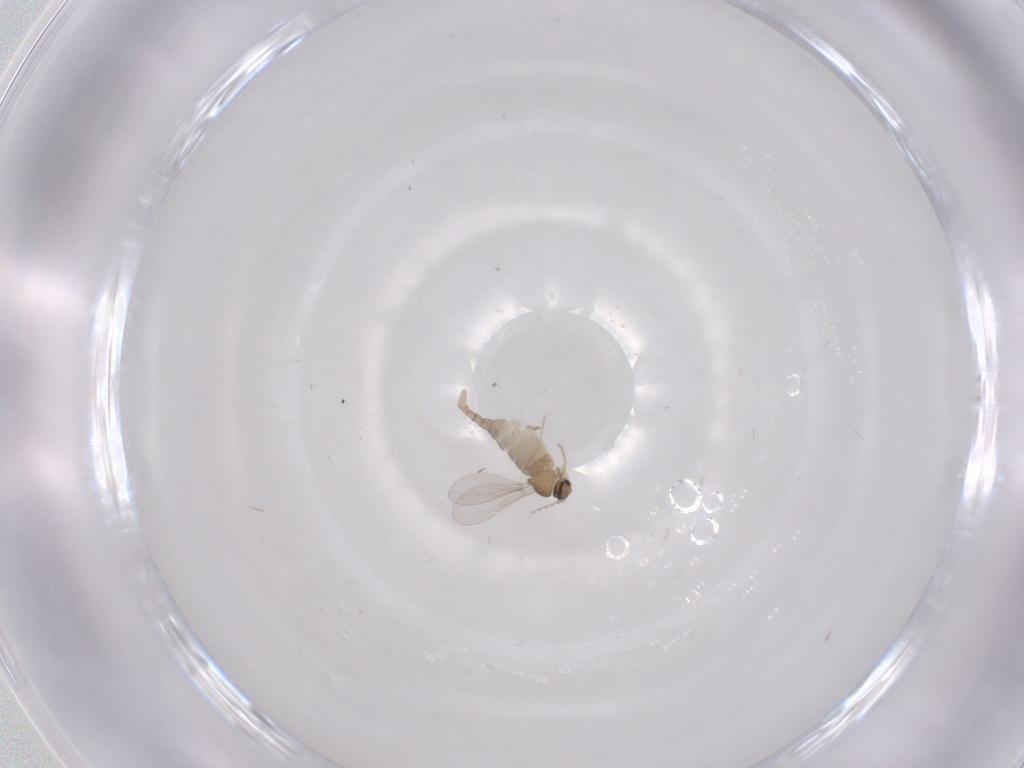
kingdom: Animalia
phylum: Arthropoda
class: Insecta
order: Diptera
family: Cecidomyiidae
